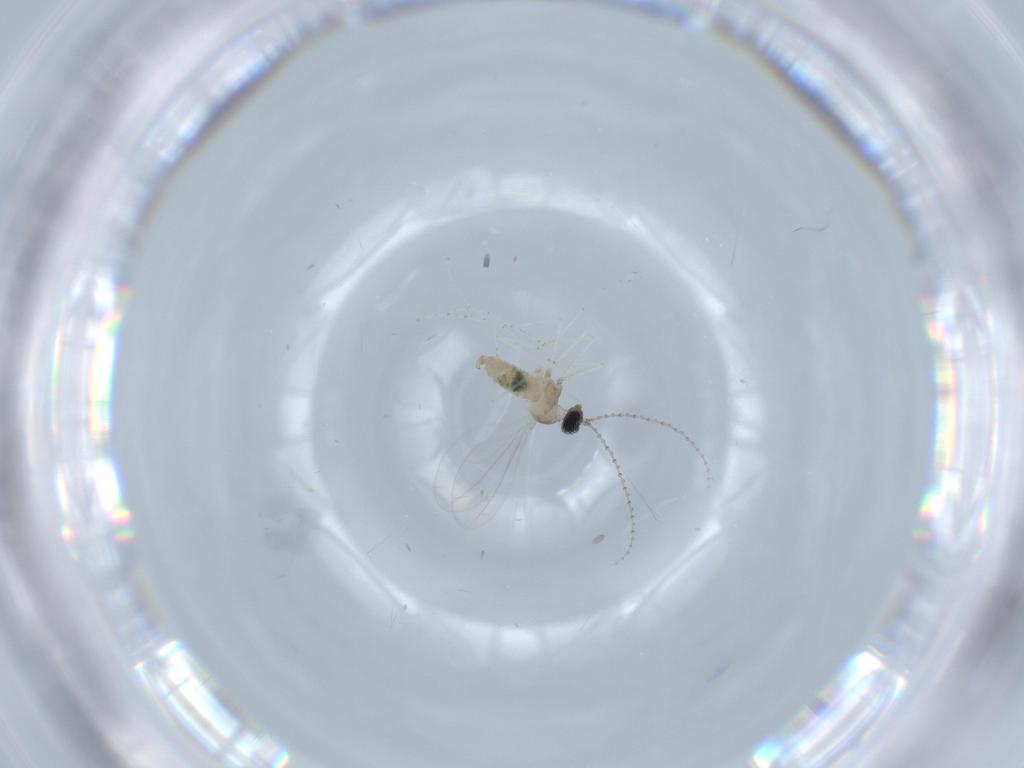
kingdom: Animalia
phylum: Arthropoda
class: Insecta
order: Diptera
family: Cecidomyiidae
